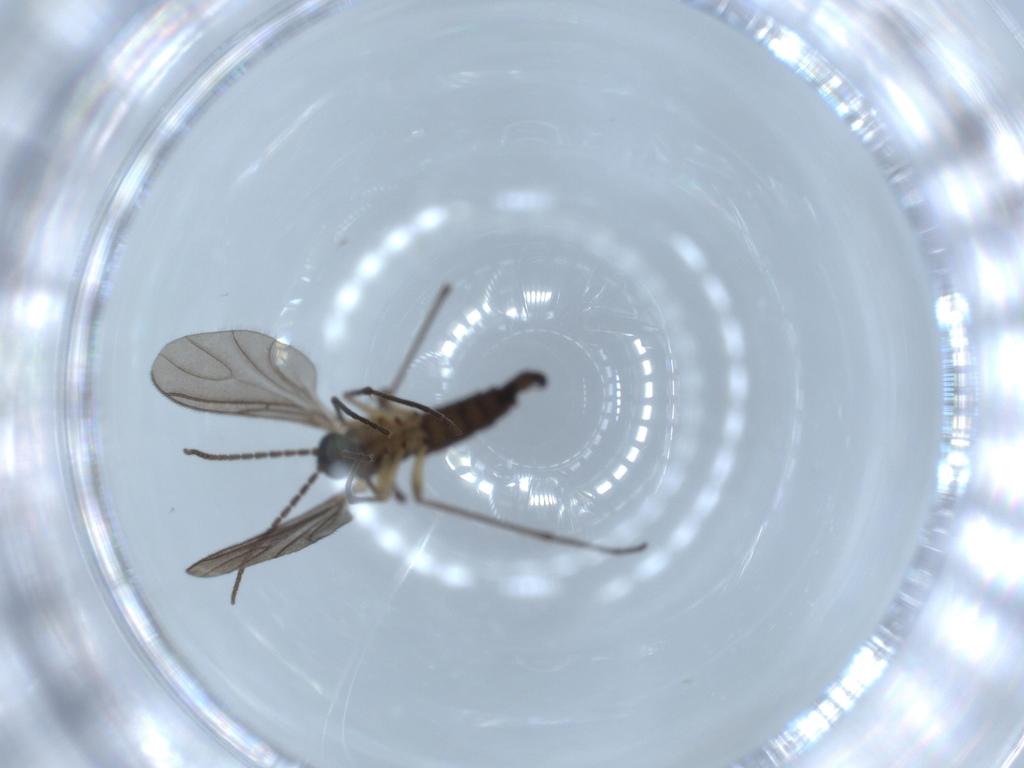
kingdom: Animalia
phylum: Arthropoda
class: Insecta
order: Diptera
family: Sciaridae
